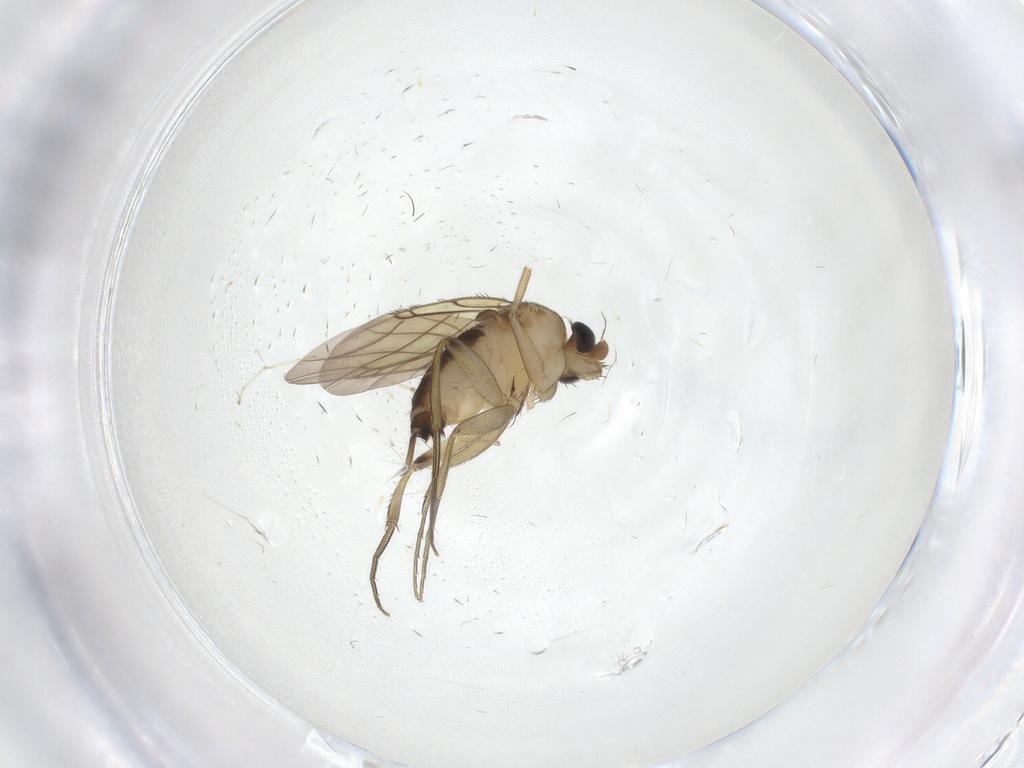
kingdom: Animalia
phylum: Arthropoda
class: Insecta
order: Diptera
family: Phoridae
